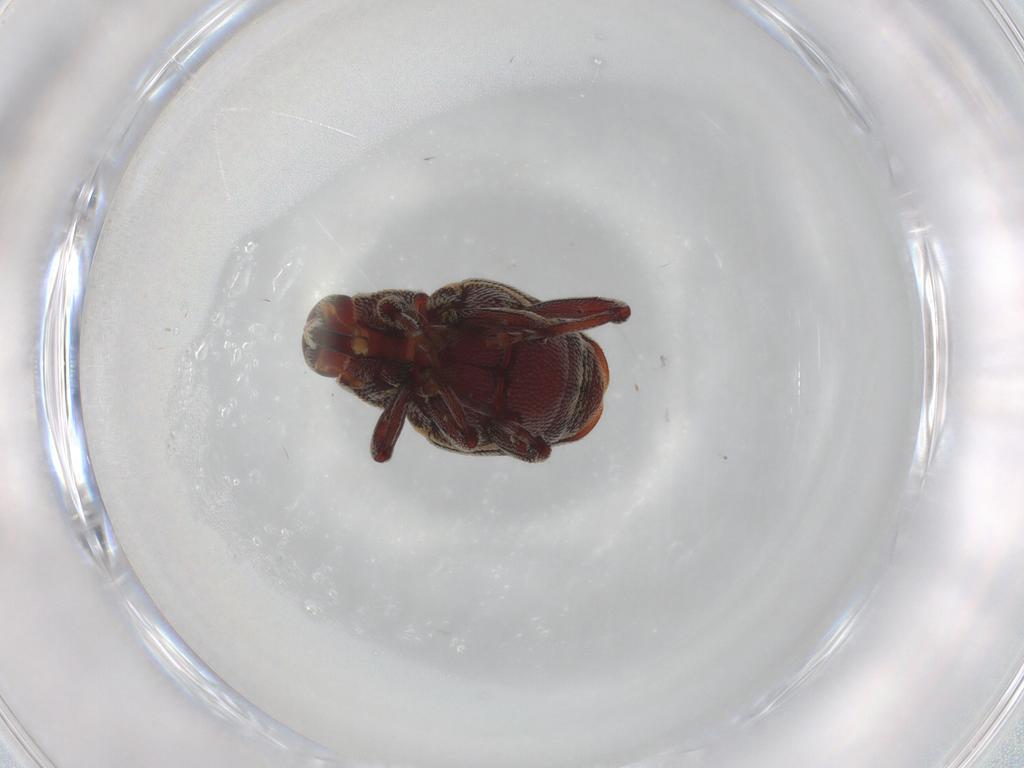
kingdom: Animalia
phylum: Arthropoda
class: Insecta
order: Coleoptera
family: Curculionidae
